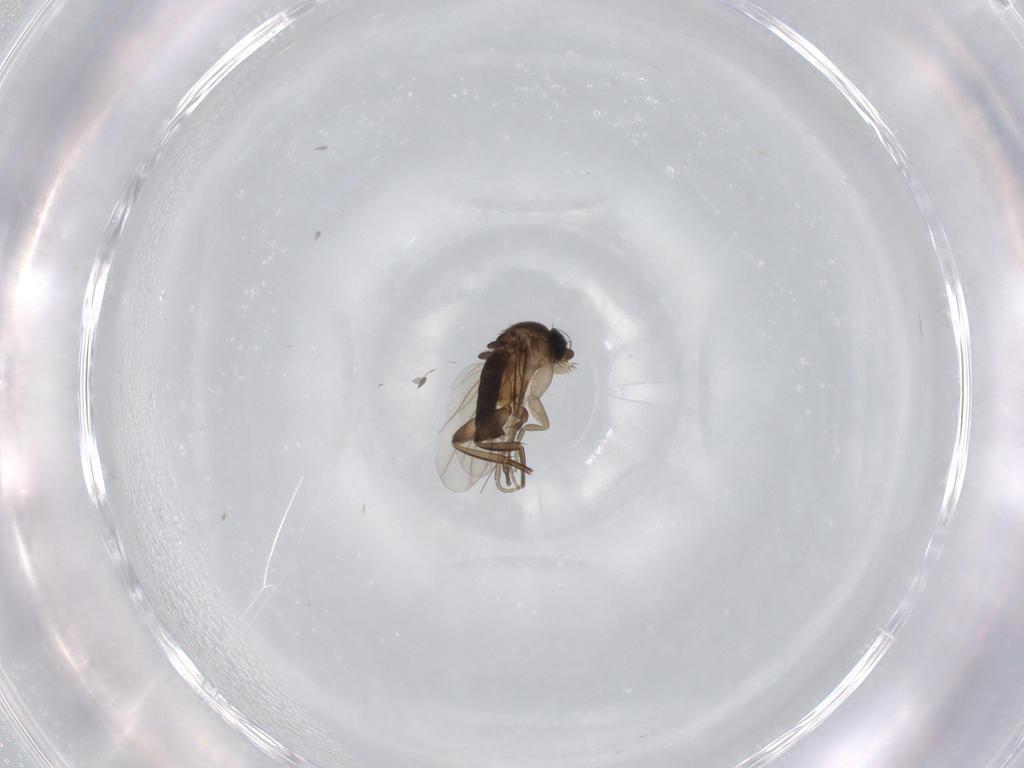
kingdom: Animalia
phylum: Arthropoda
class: Insecta
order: Diptera
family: Phoridae
